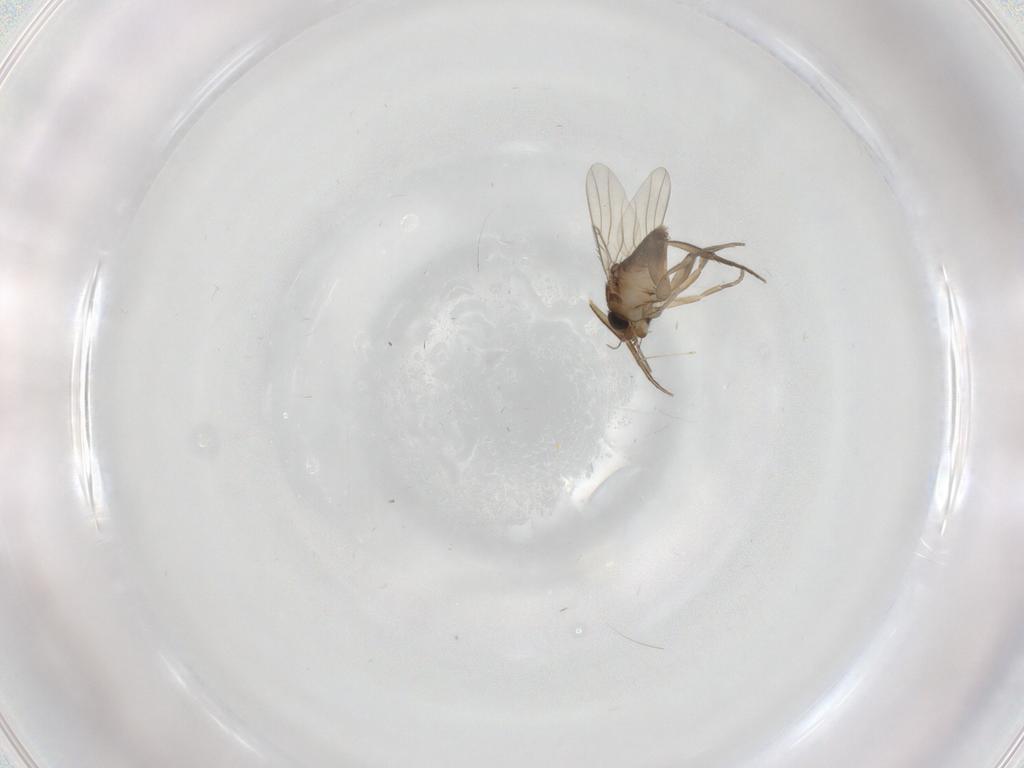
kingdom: Animalia
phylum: Arthropoda
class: Insecta
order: Diptera
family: Phoridae
